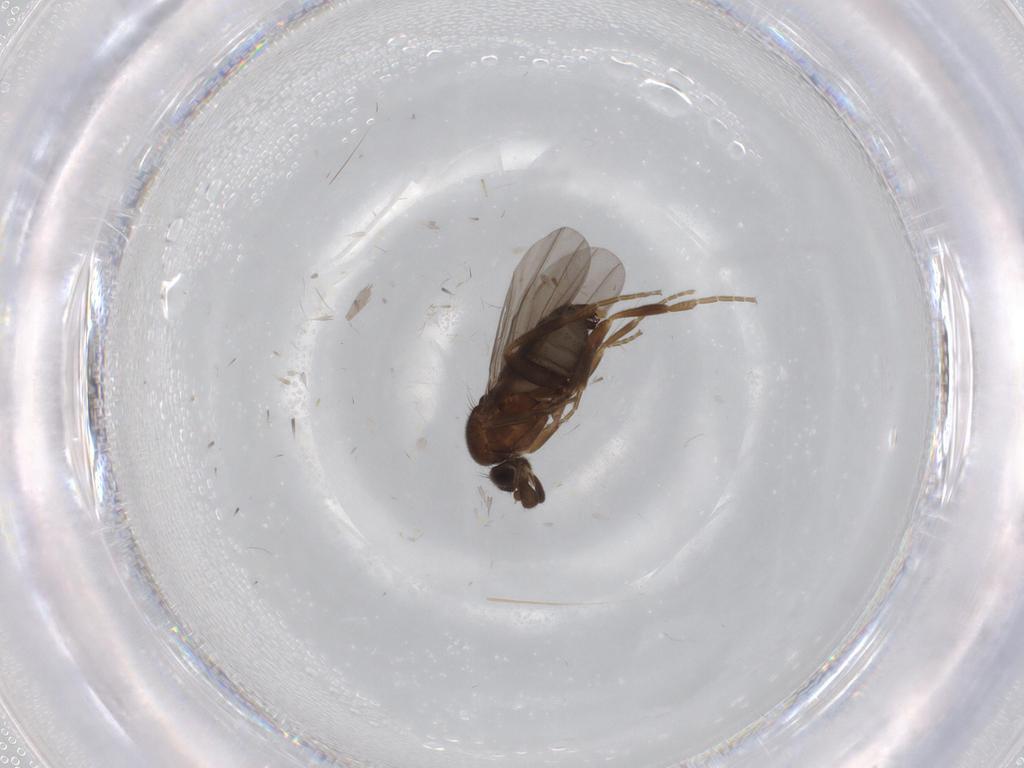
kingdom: Animalia
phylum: Arthropoda
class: Insecta
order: Diptera
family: Phoridae
